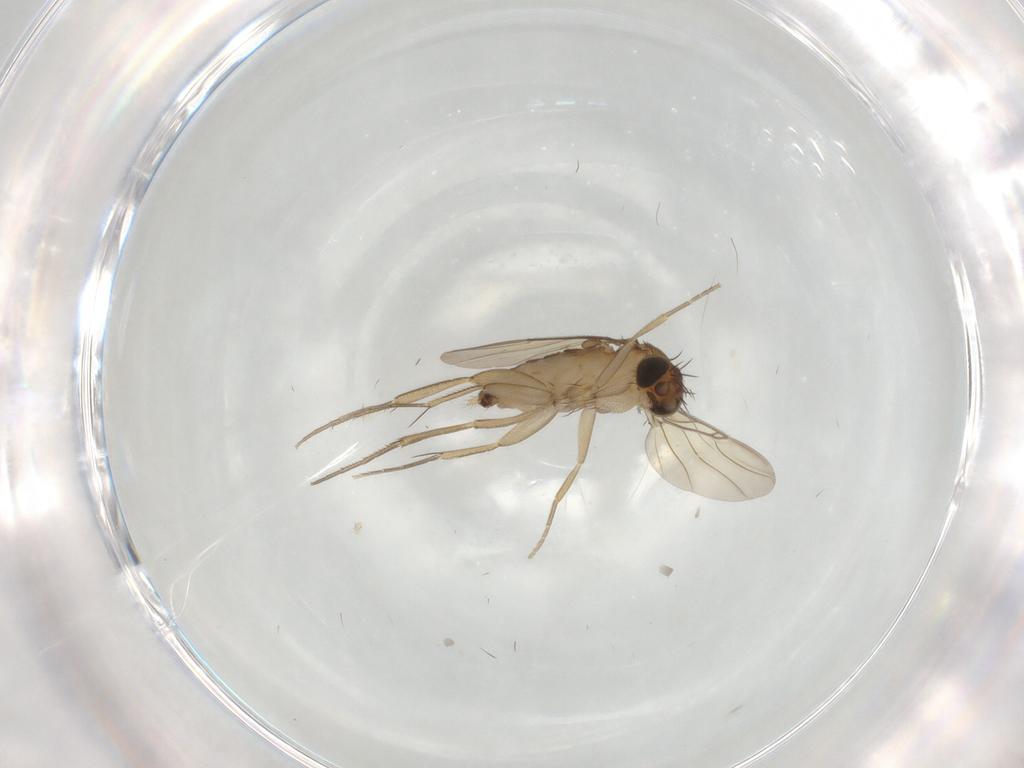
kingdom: Animalia
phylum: Arthropoda
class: Insecta
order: Diptera
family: Phoridae
